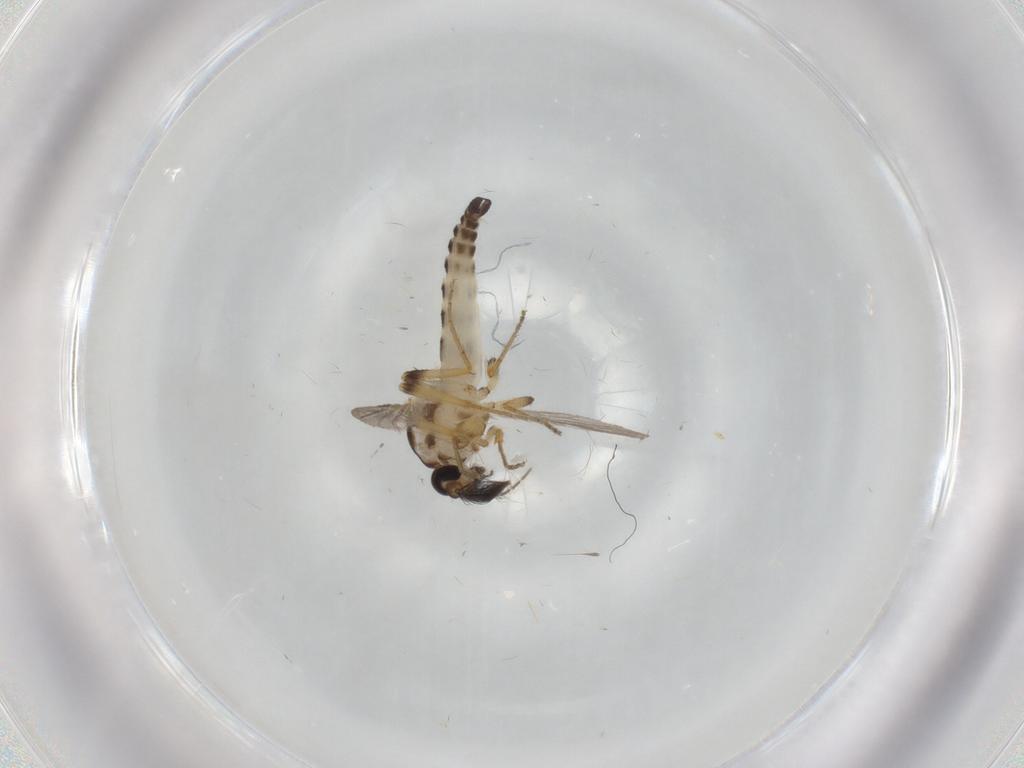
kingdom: Animalia
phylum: Arthropoda
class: Insecta
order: Diptera
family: Ceratopogonidae
